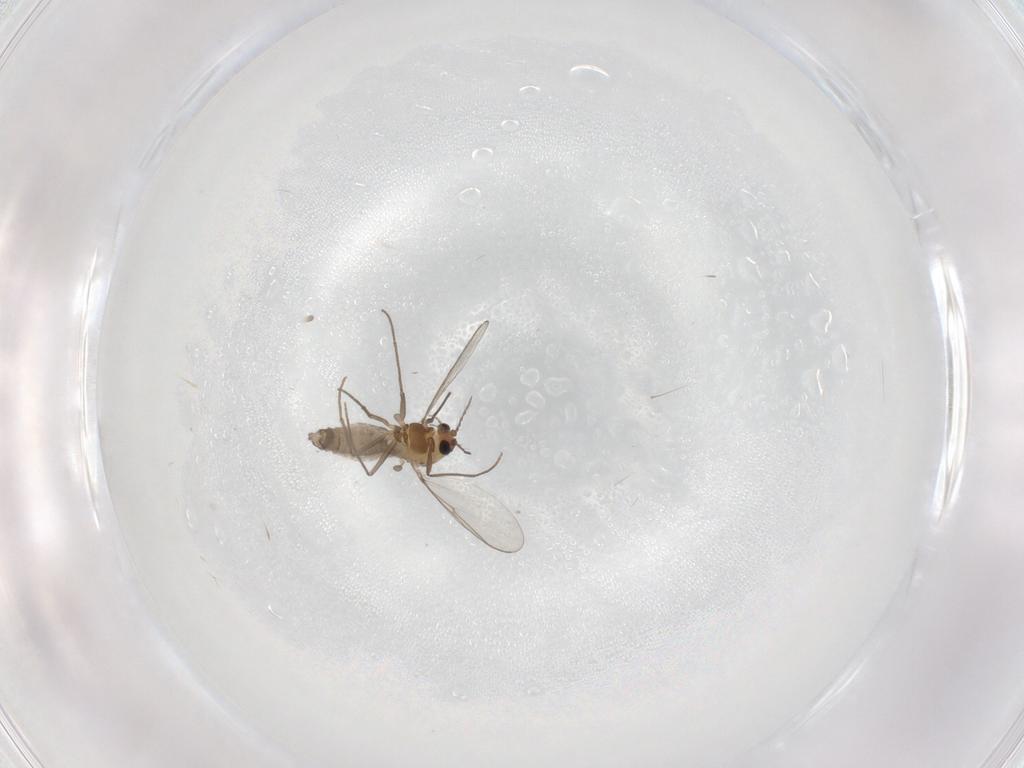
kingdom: Animalia
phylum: Arthropoda
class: Insecta
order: Diptera
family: Chironomidae
